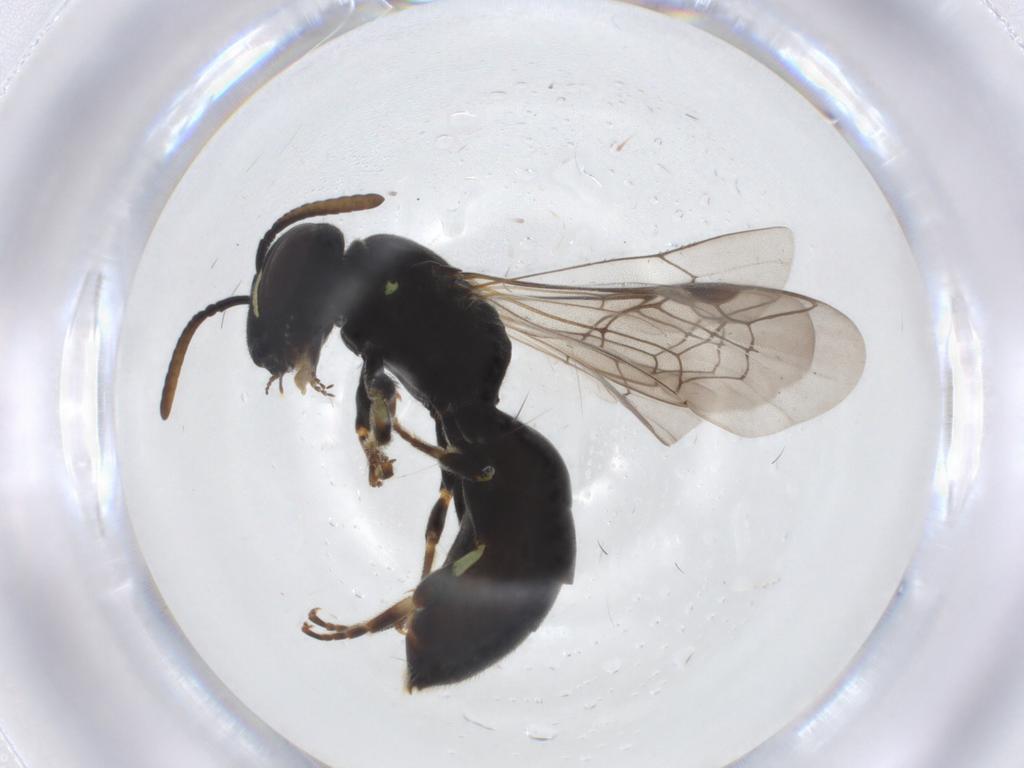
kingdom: Animalia
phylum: Arthropoda
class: Insecta
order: Hymenoptera
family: Colletidae
